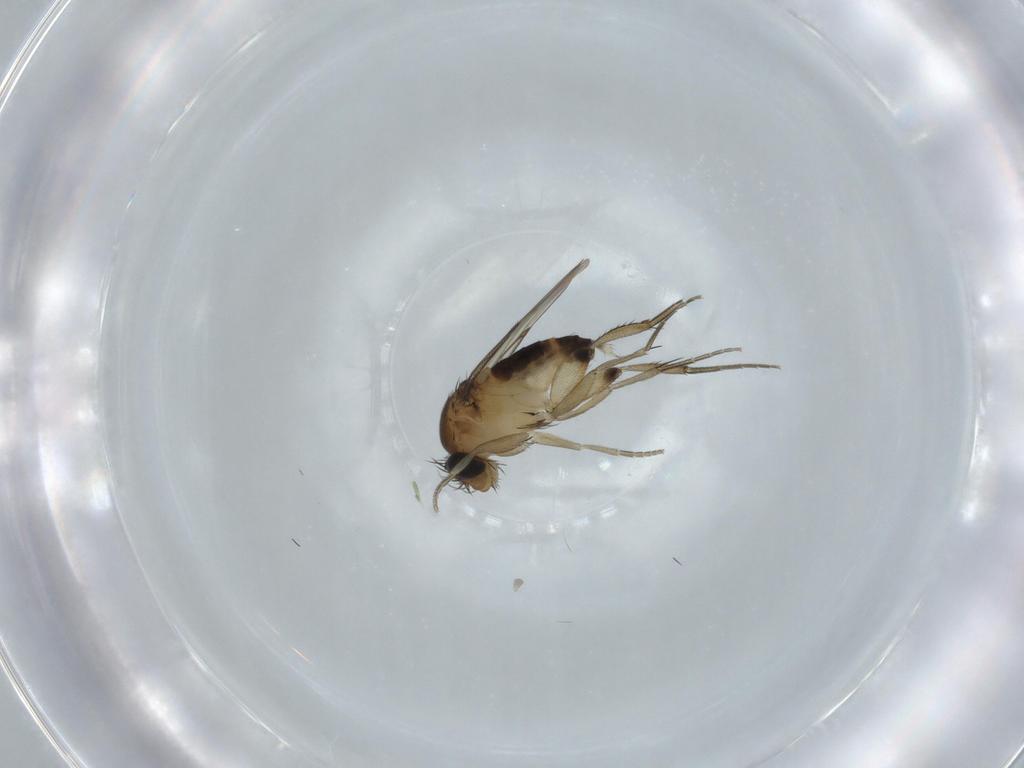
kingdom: Animalia
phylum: Arthropoda
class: Insecta
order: Diptera
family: Phoridae
